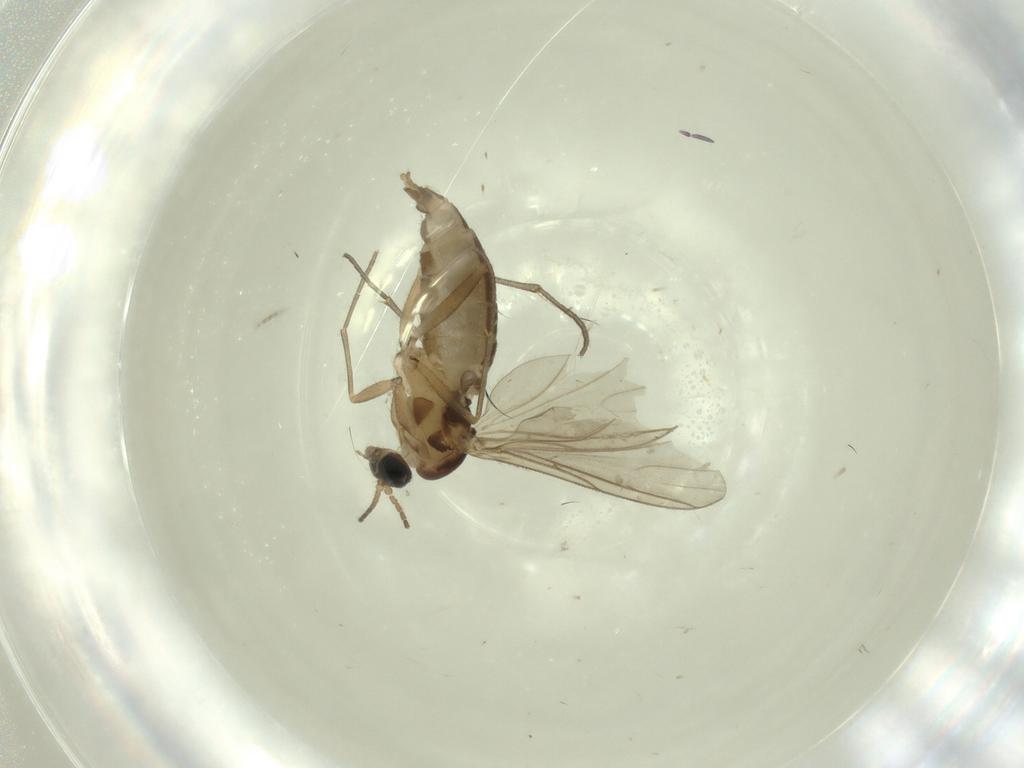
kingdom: Animalia
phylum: Arthropoda
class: Insecta
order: Diptera
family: Sciaridae
